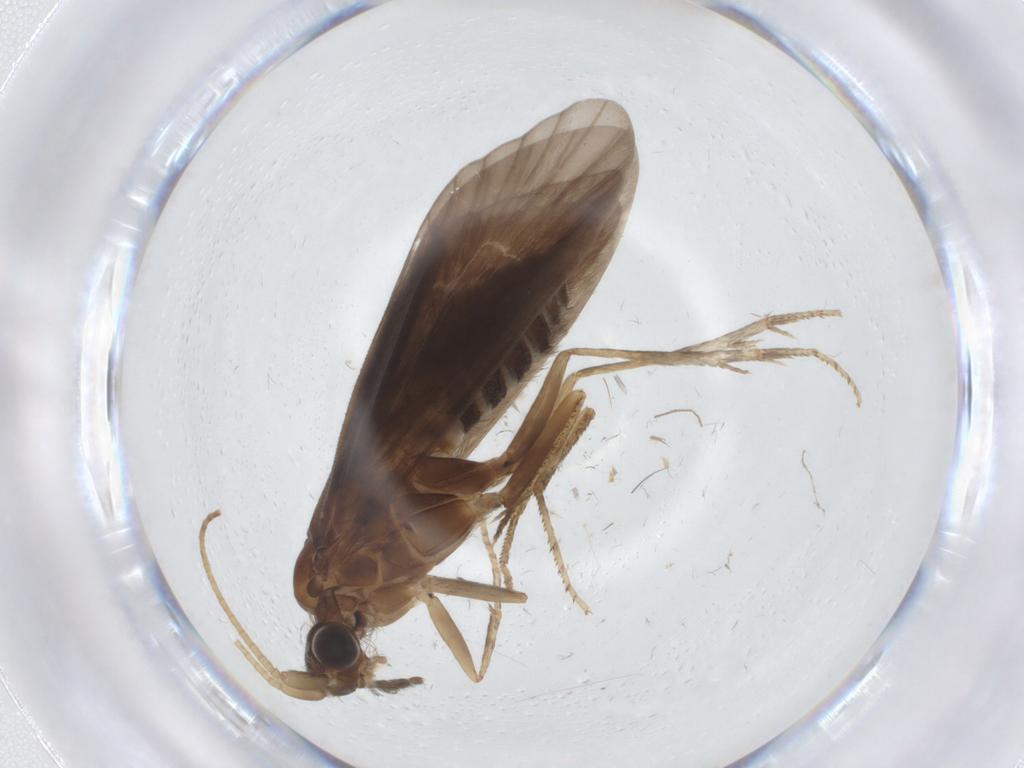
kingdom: Animalia
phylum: Arthropoda
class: Insecta
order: Trichoptera
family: Helicopsychidae
